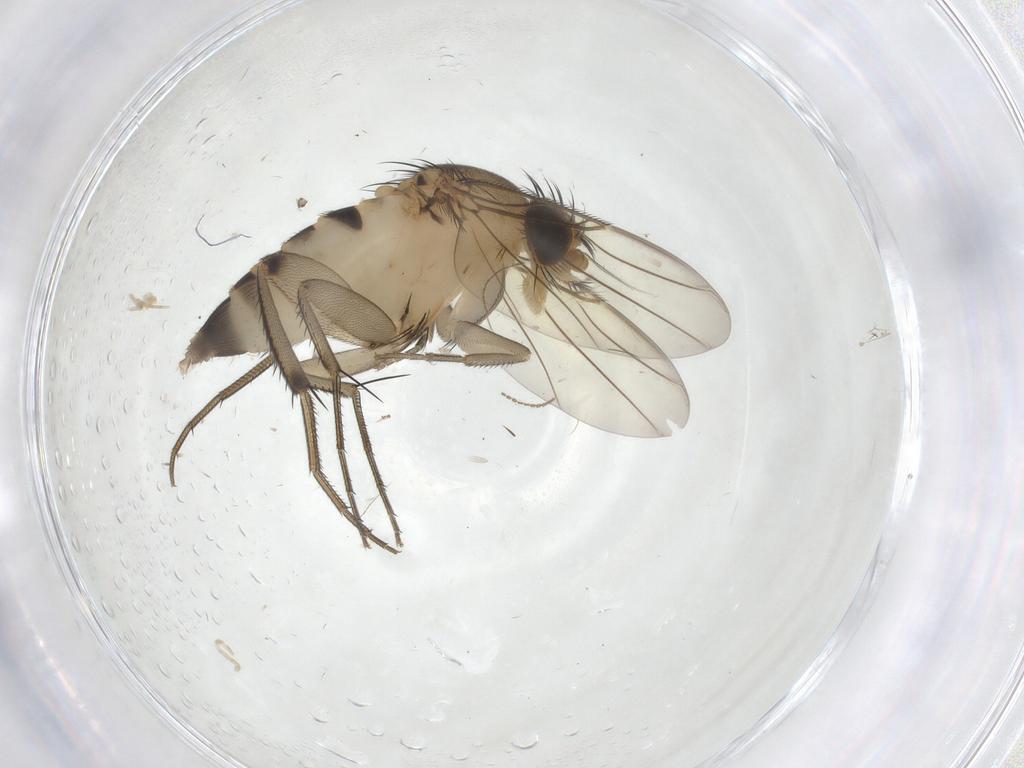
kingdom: Animalia
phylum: Arthropoda
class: Insecta
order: Diptera
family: Phoridae
